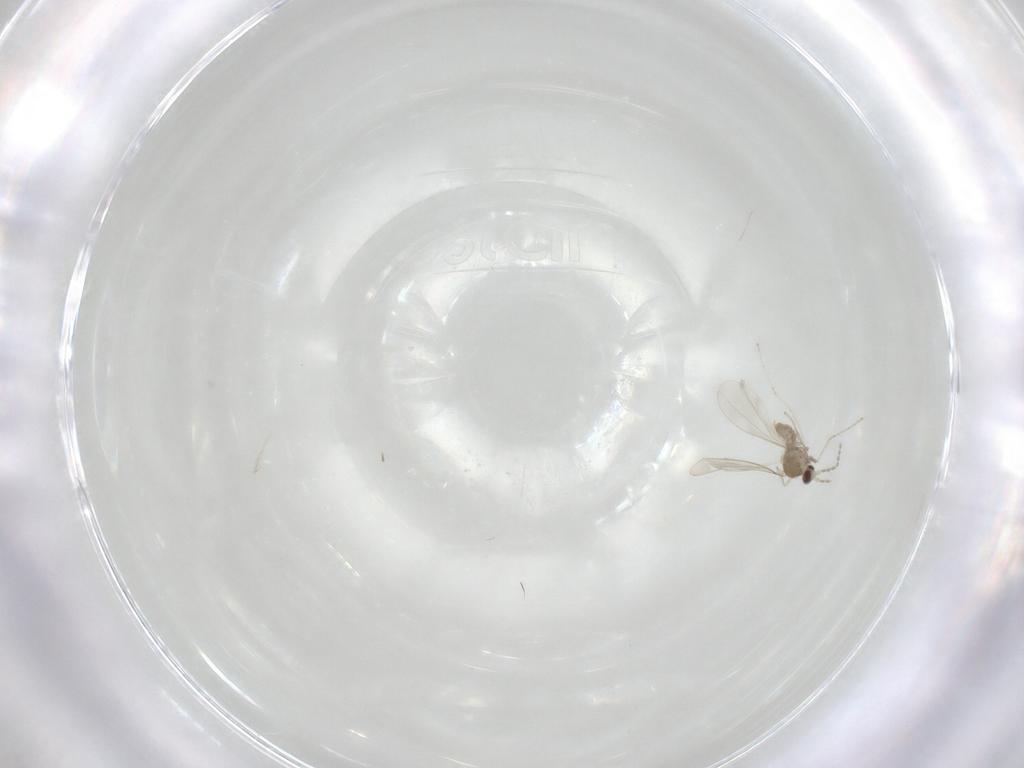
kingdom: Animalia
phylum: Arthropoda
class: Insecta
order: Diptera
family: Cecidomyiidae
